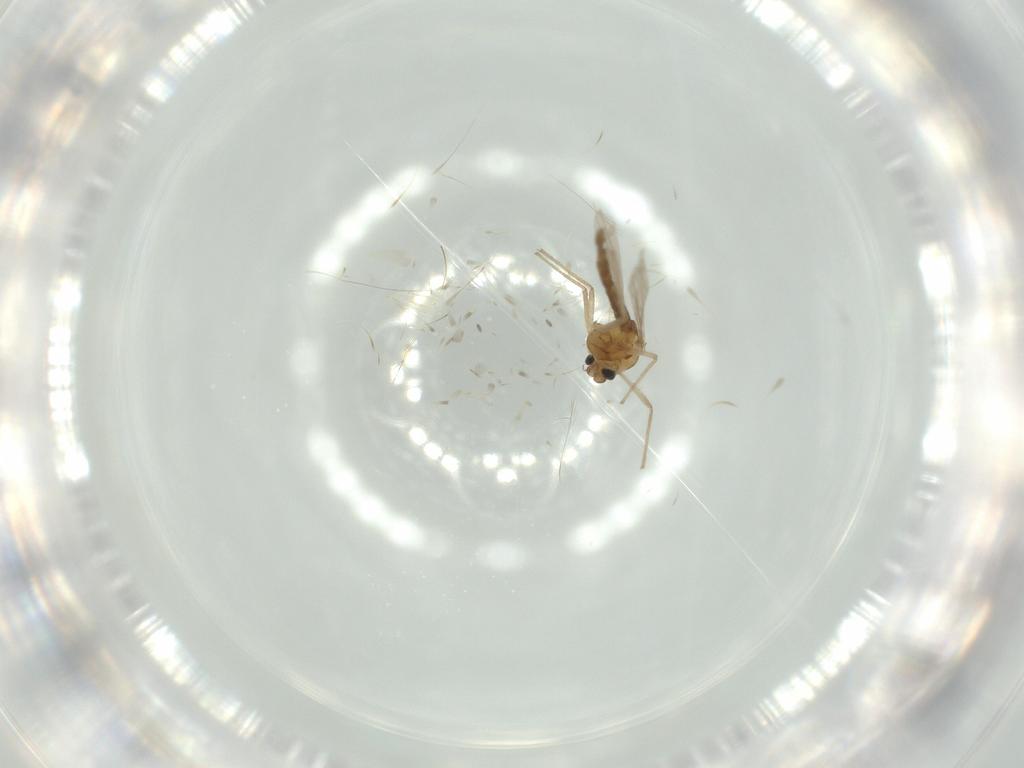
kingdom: Animalia
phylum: Arthropoda
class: Insecta
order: Diptera
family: Chironomidae
